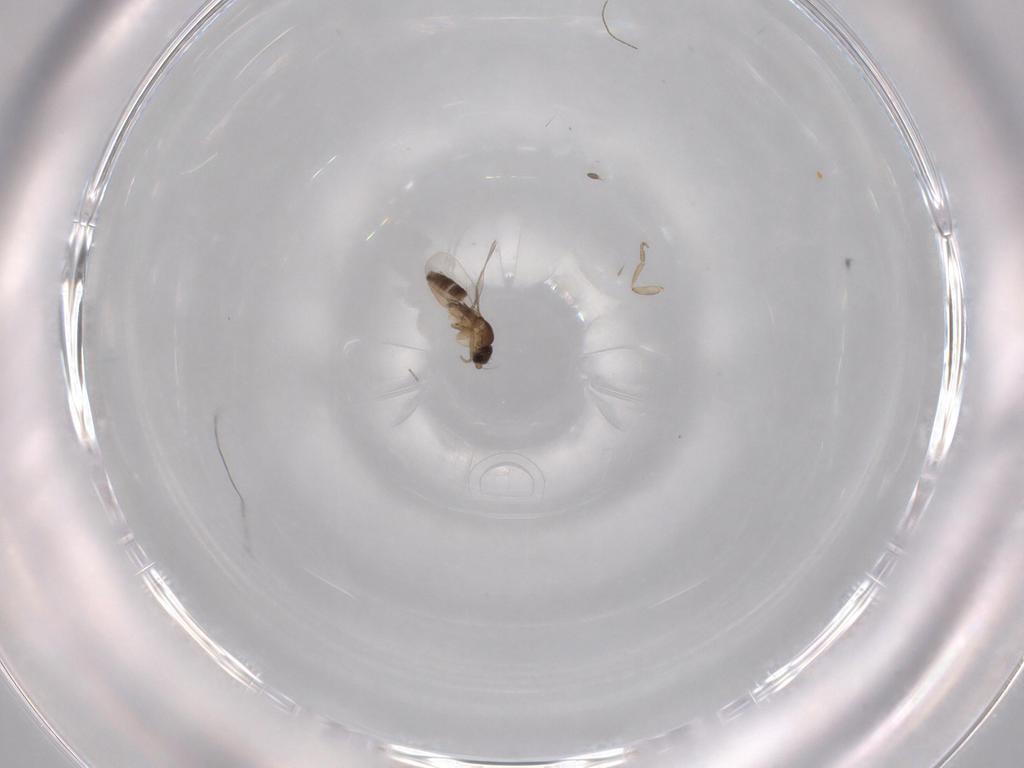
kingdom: Animalia
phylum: Arthropoda
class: Insecta
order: Diptera
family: Phoridae
